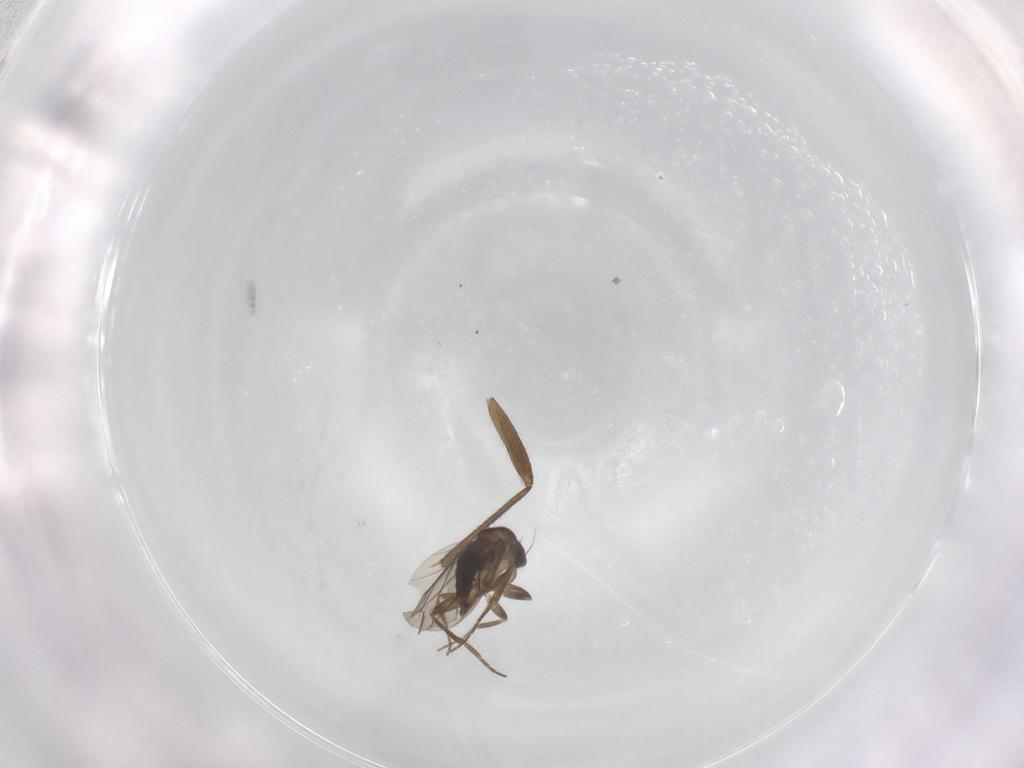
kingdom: Animalia
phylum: Arthropoda
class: Insecta
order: Diptera
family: Sciaridae
